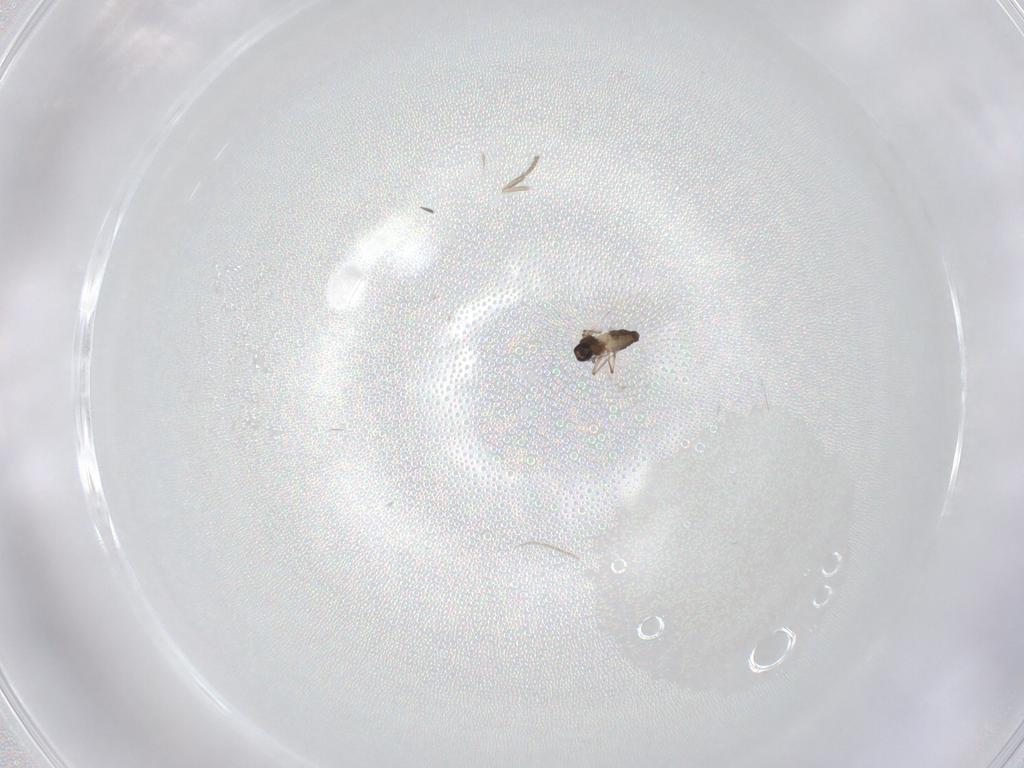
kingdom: Animalia
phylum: Arthropoda
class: Insecta
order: Diptera
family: Ceratopogonidae
